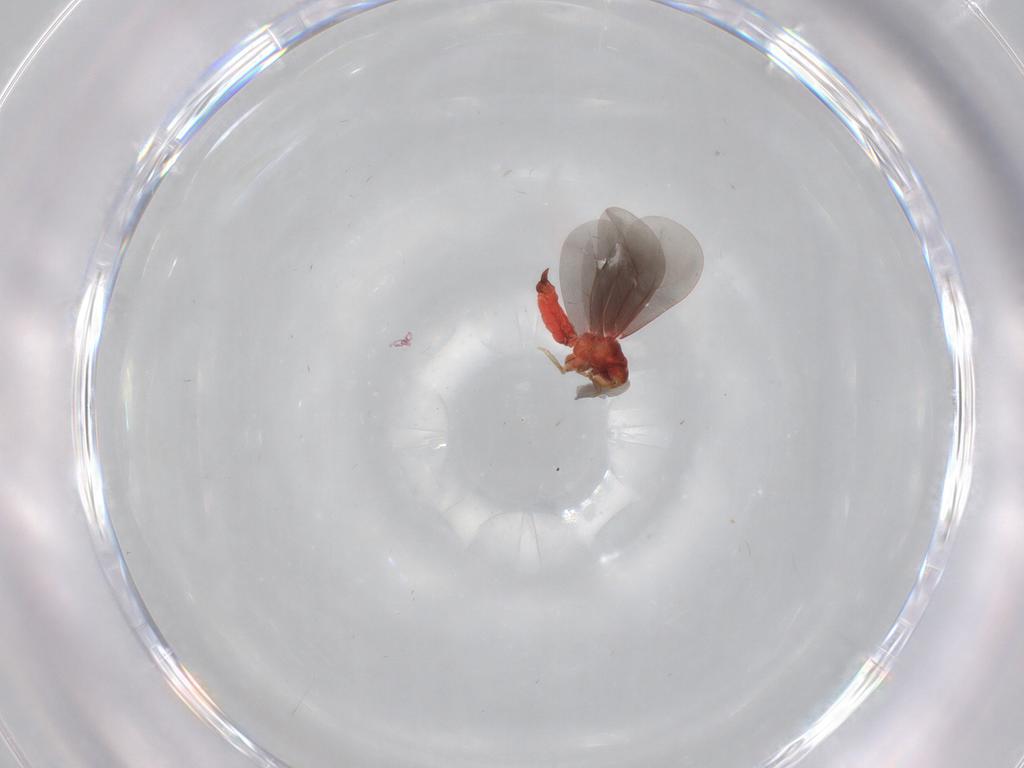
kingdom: Animalia
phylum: Arthropoda
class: Insecta
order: Hemiptera
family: Aleyrodidae
